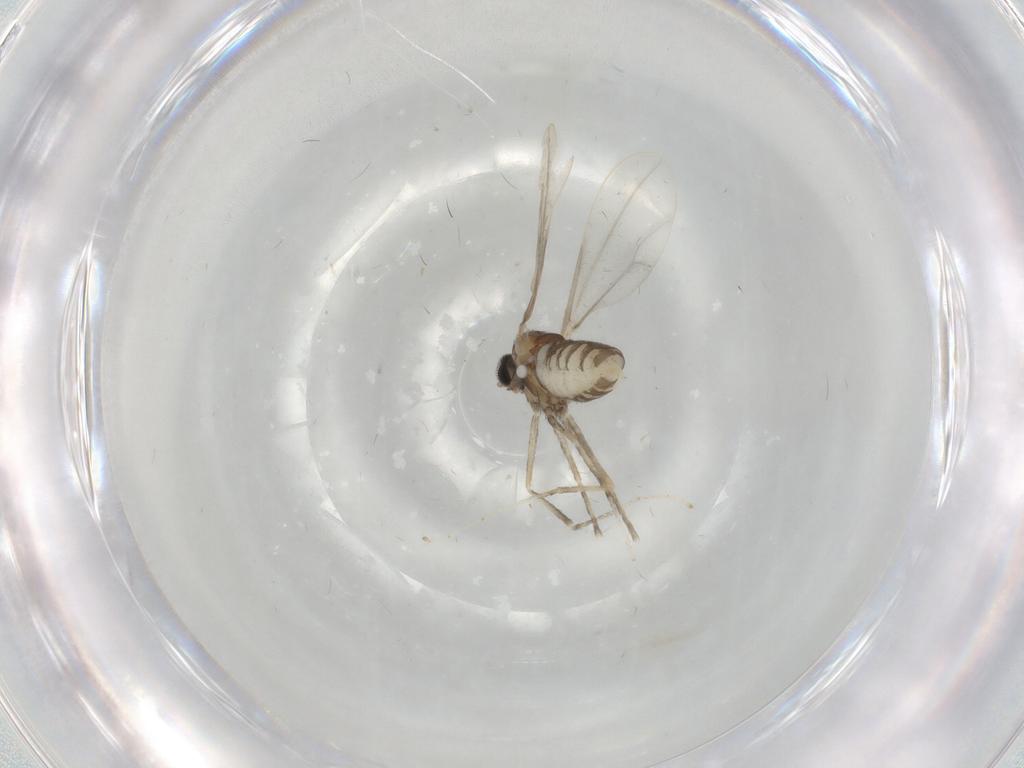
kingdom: Animalia
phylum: Arthropoda
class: Insecta
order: Diptera
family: Cecidomyiidae
